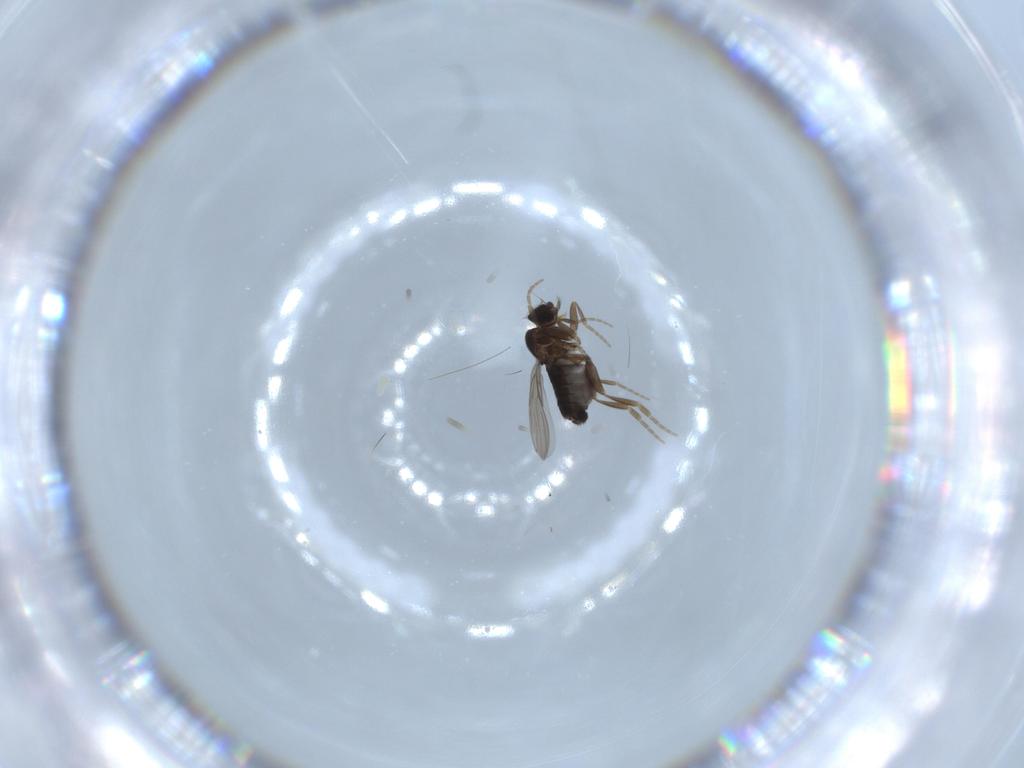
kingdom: Animalia
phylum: Arthropoda
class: Insecta
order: Diptera
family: Phoridae
